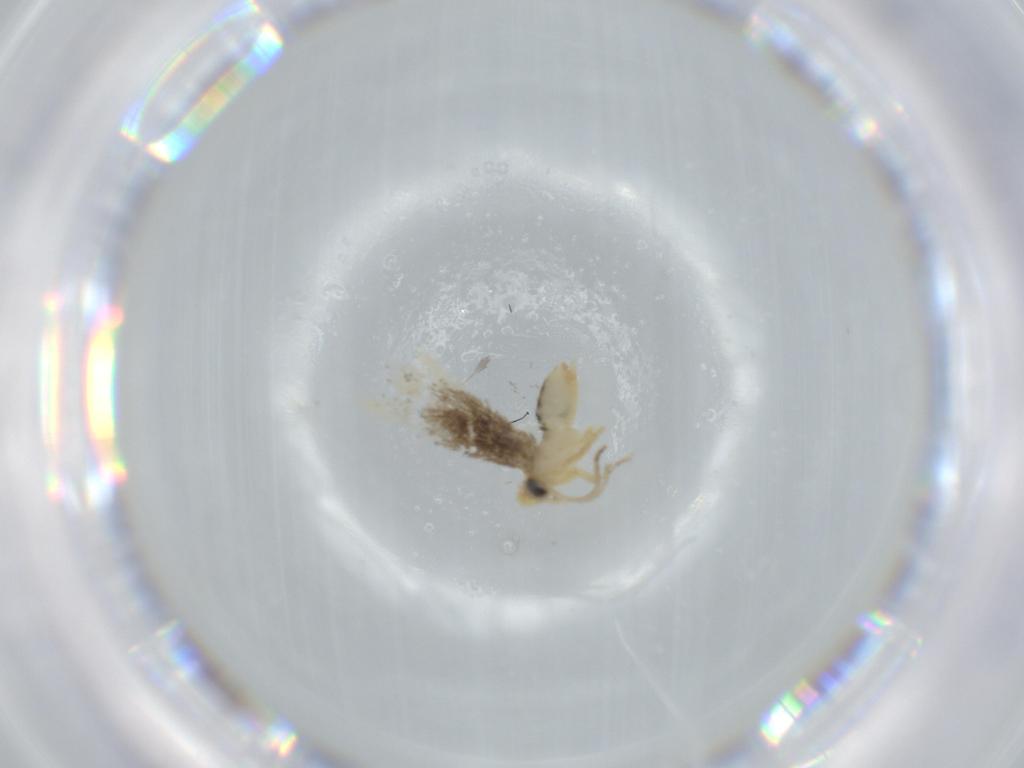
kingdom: Animalia
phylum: Arthropoda
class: Insecta
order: Lepidoptera
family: Nepticulidae
